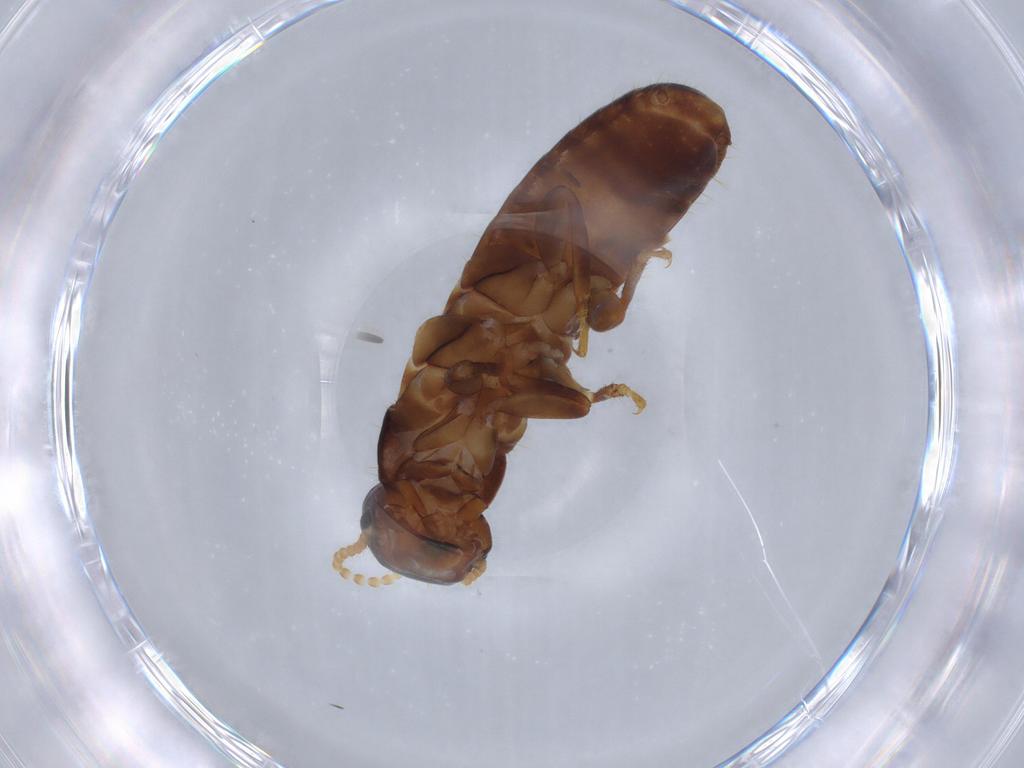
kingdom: Animalia
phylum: Arthropoda
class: Insecta
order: Blattodea
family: Kalotermitidae
